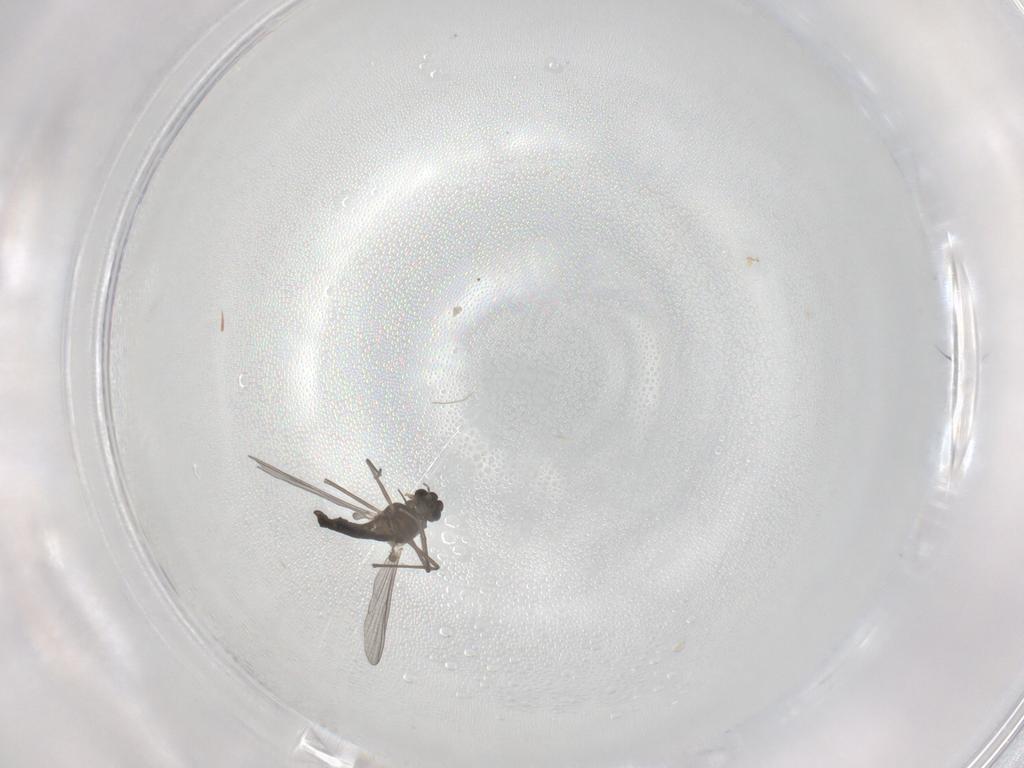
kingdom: Animalia
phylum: Arthropoda
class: Insecta
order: Diptera
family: Chironomidae
